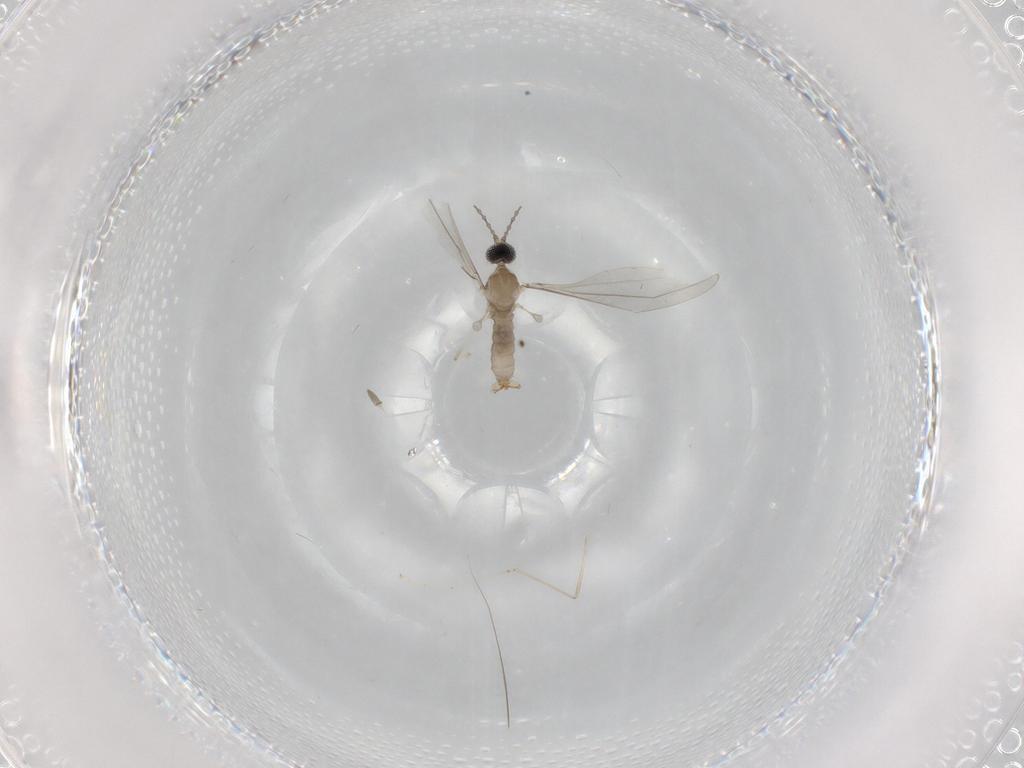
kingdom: Animalia
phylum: Arthropoda
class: Insecta
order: Diptera
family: Cecidomyiidae
